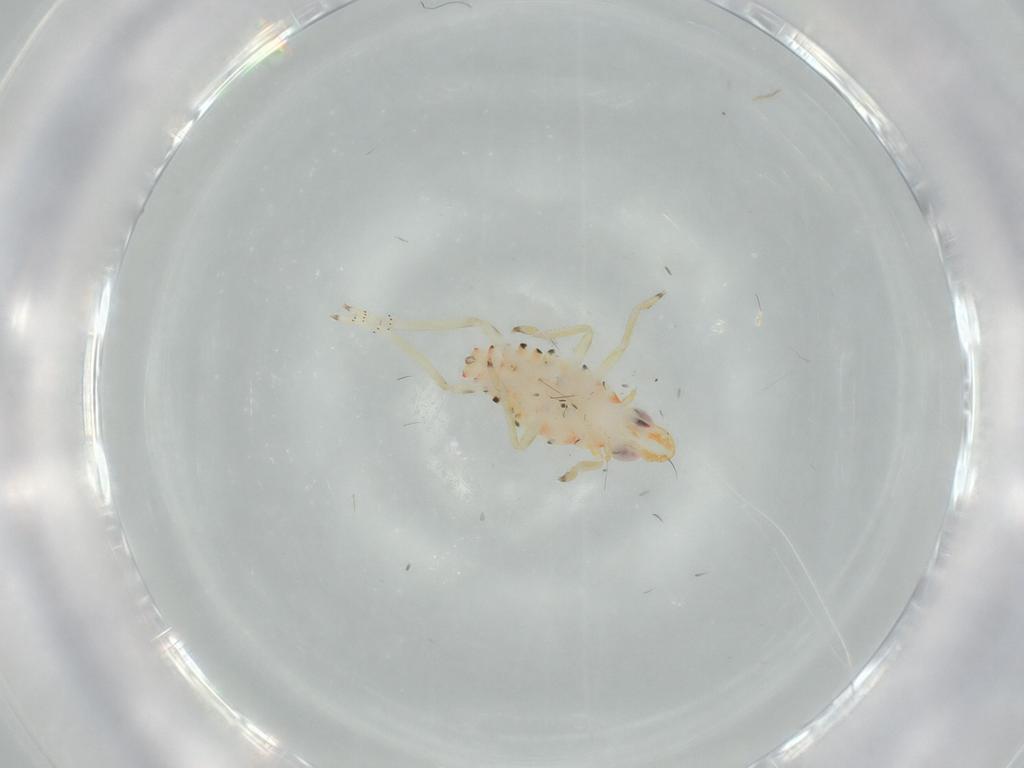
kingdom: Animalia
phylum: Arthropoda
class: Insecta
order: Hemiptera
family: Tropiduchidae
